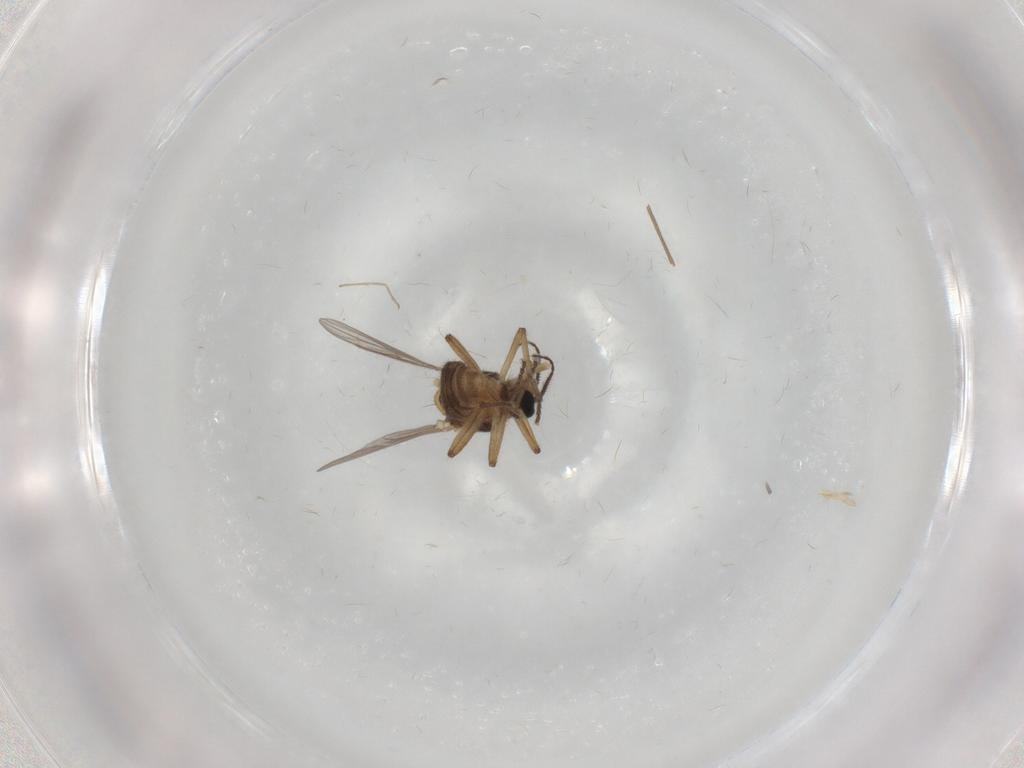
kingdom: Animalia
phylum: Arthropoda
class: Insecta
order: Diptera
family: Ceratopogonidae
